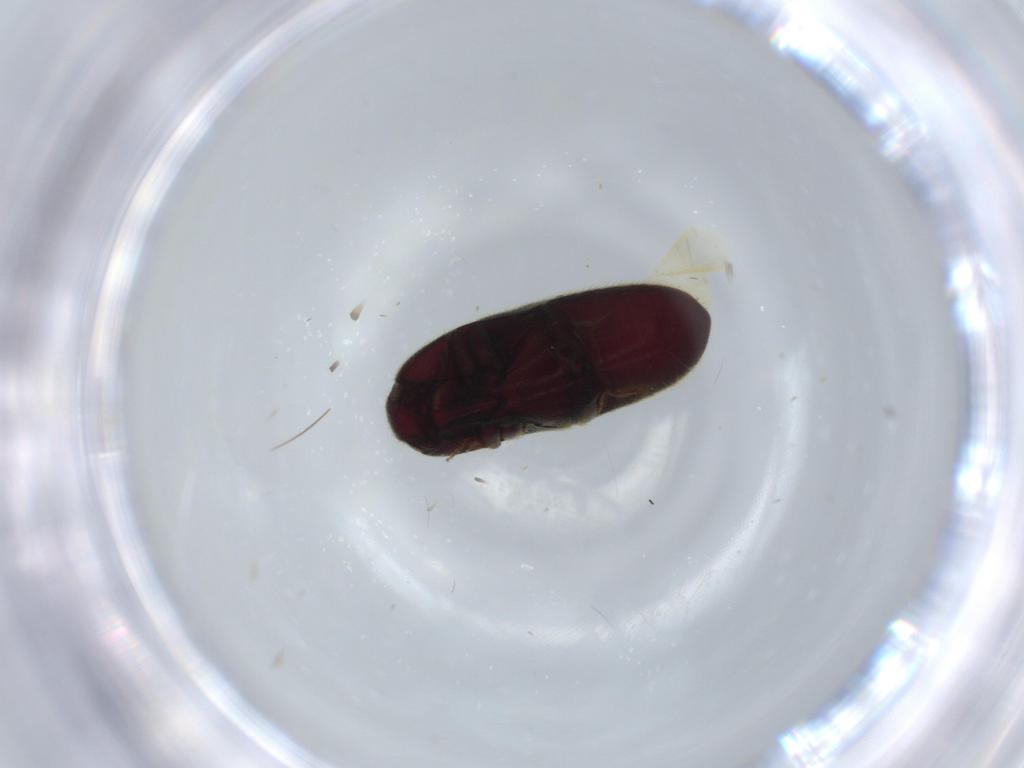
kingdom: Animalia
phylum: Arthropoda
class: Insecta
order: Coleoptera
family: Throscidae
